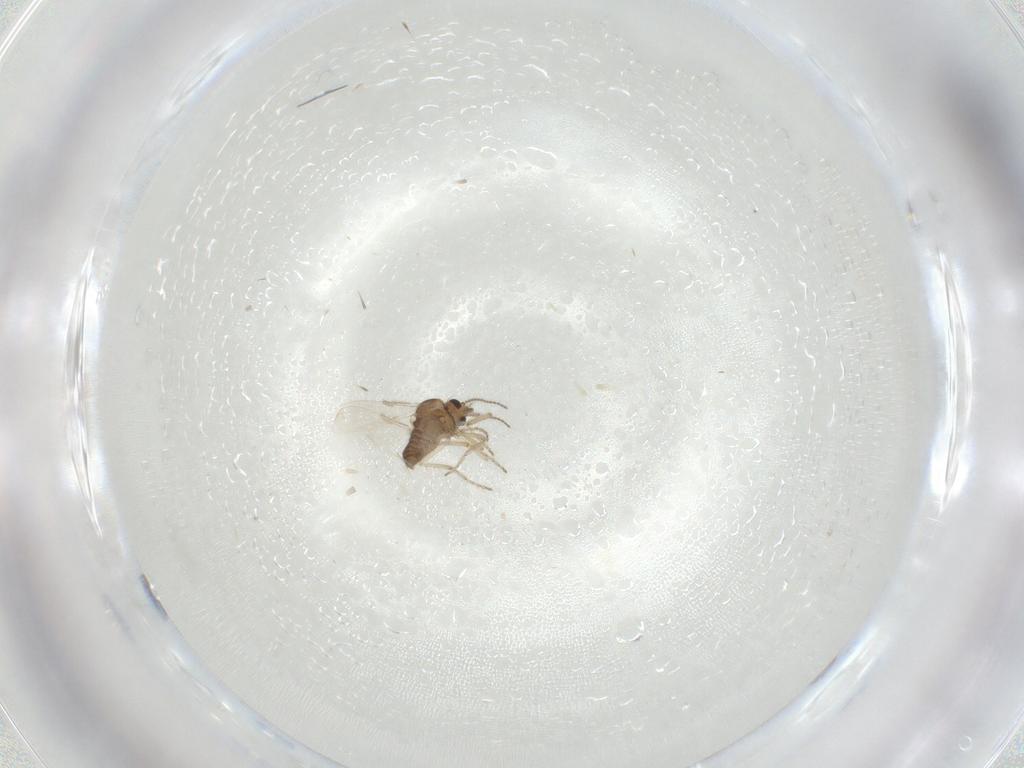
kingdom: Animalia
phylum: Arthropoda
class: Insecta
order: Diptera
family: Ceratopogonidae
